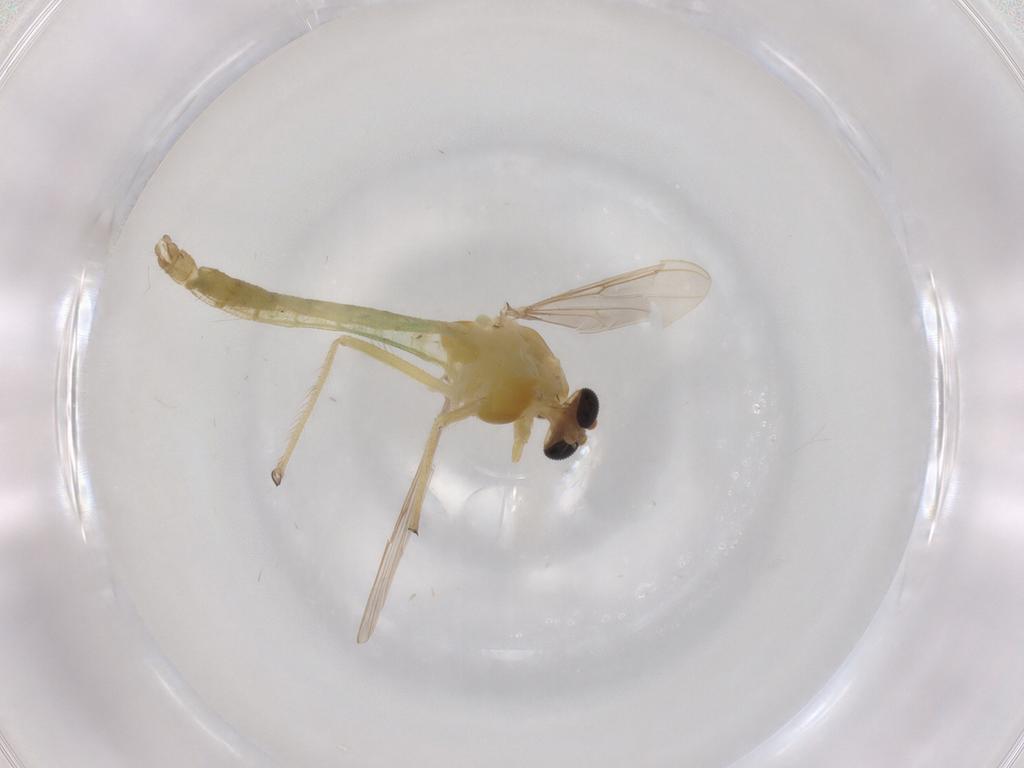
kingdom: Animalia
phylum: Arthropoda
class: Insecta
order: Diptera
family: Chironomidae
